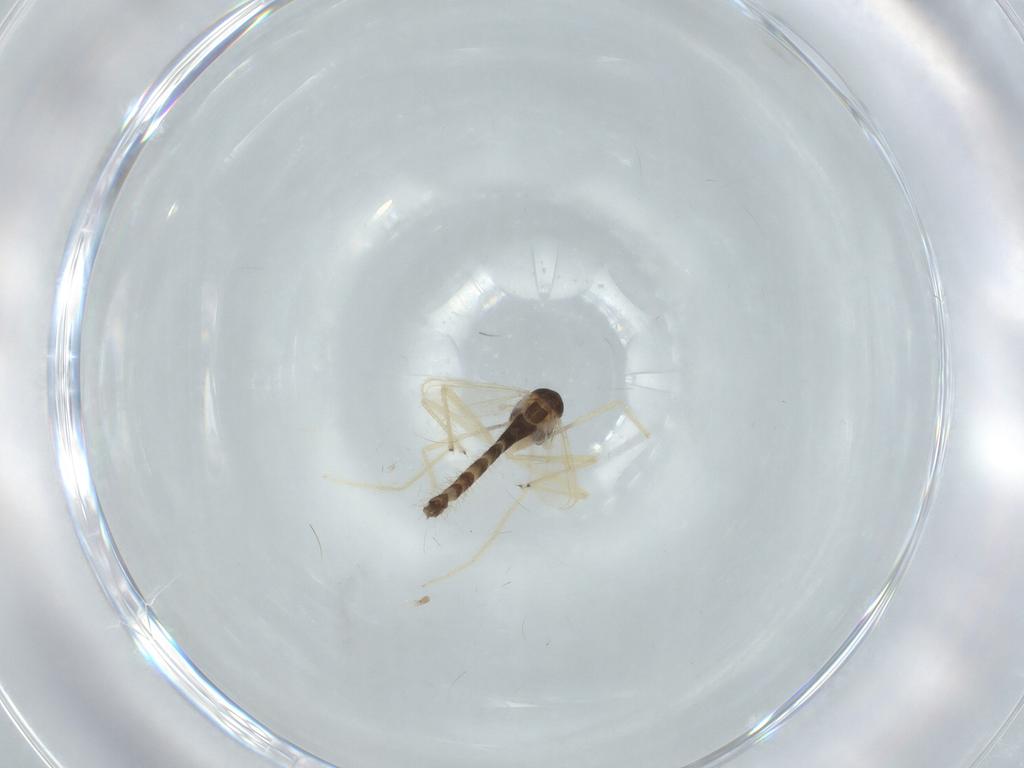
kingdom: Animalia
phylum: Arthropoda
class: Insecta
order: Diptera
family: Chironomidae
